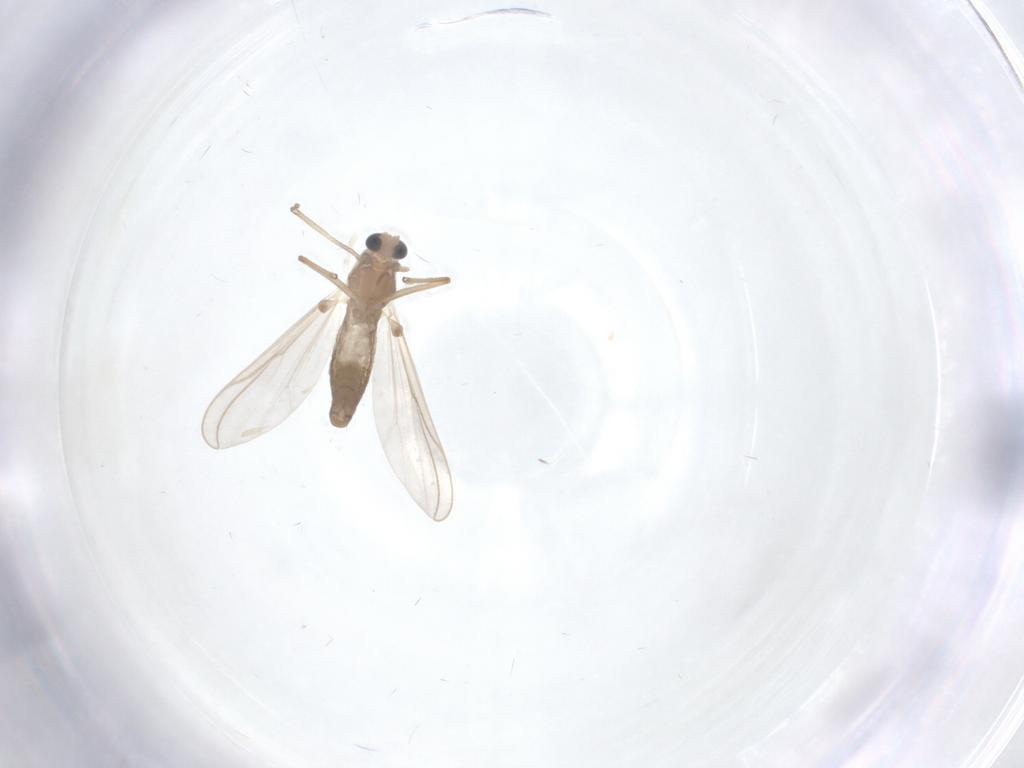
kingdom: Animalia
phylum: Arthropoda
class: Insecta
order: Diptera
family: Chironomidae
